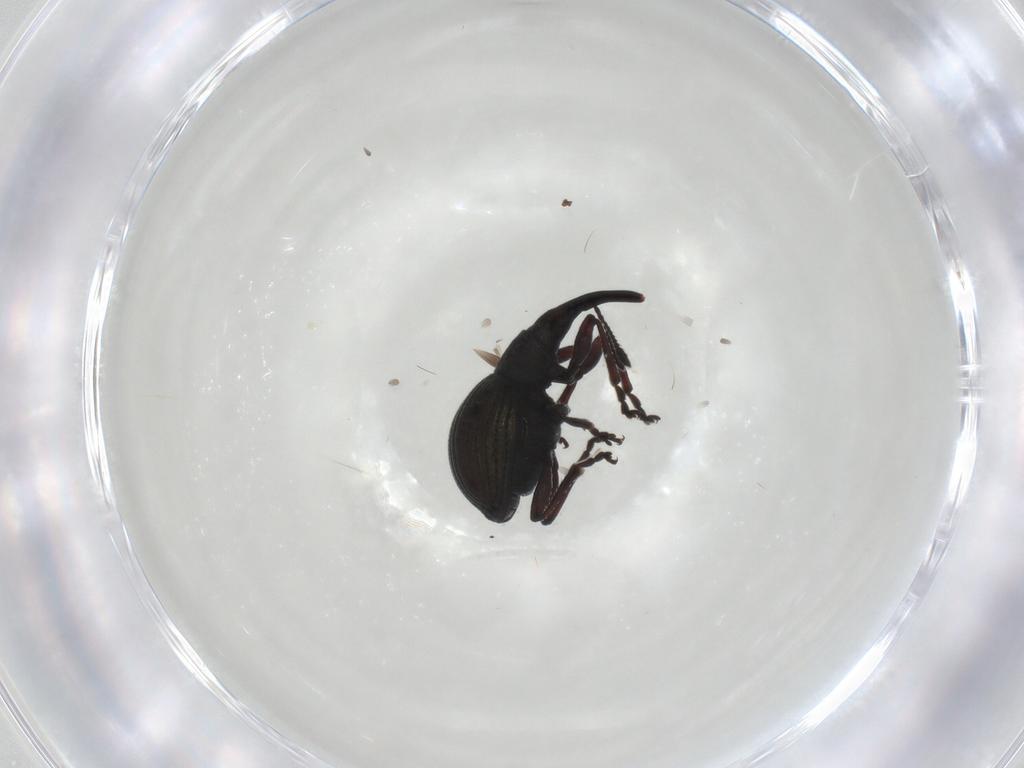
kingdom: Animalia
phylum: Arthropoda
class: Insecta
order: Coleoptera
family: Brentidae
